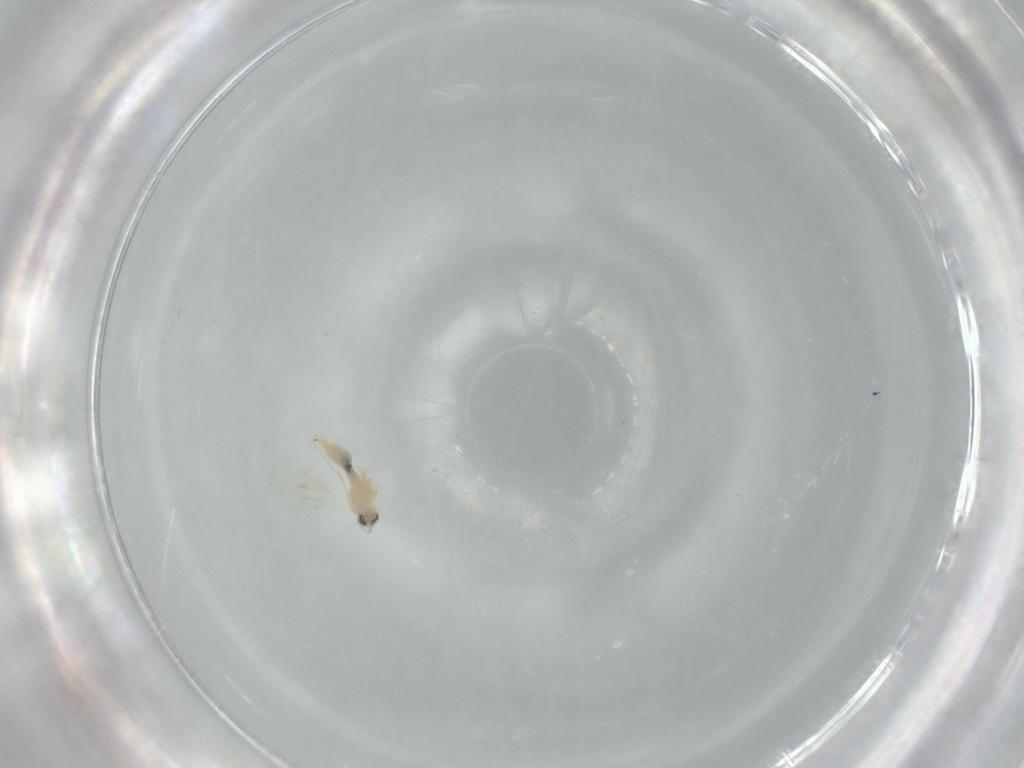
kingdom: Animalia
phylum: Arthropoda
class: Insecta
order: Diptera
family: Cecidomyiidae
